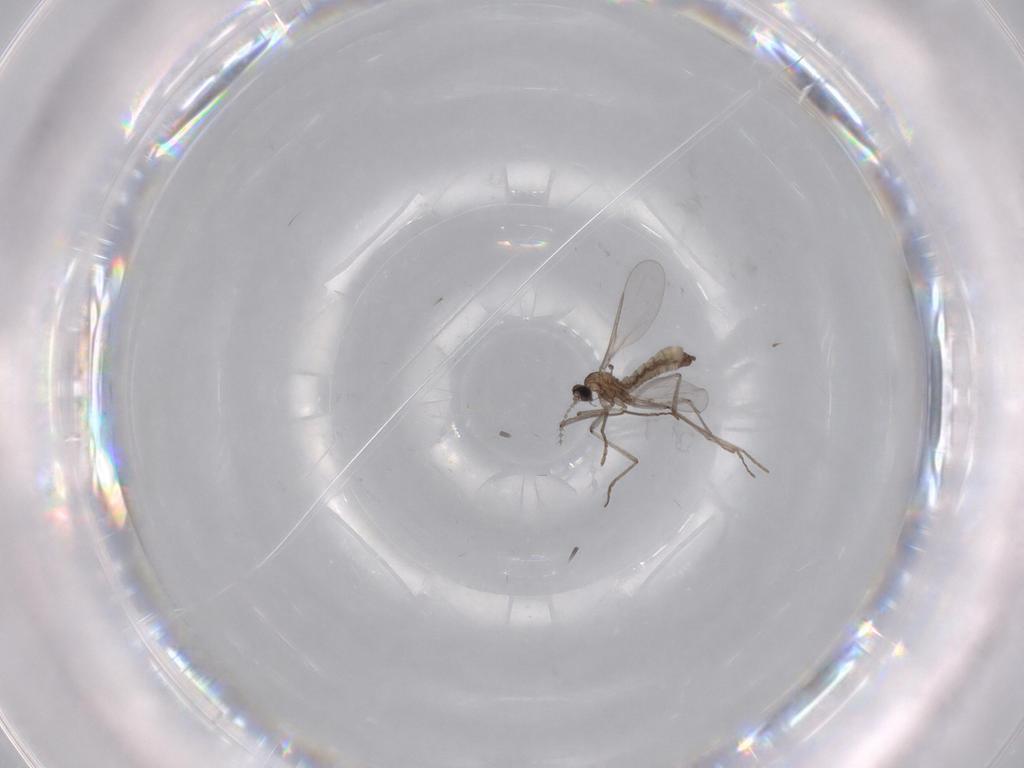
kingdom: Animalia
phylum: Arthropoda
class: Insecta
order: Diptera
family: Cecidomyiidae
